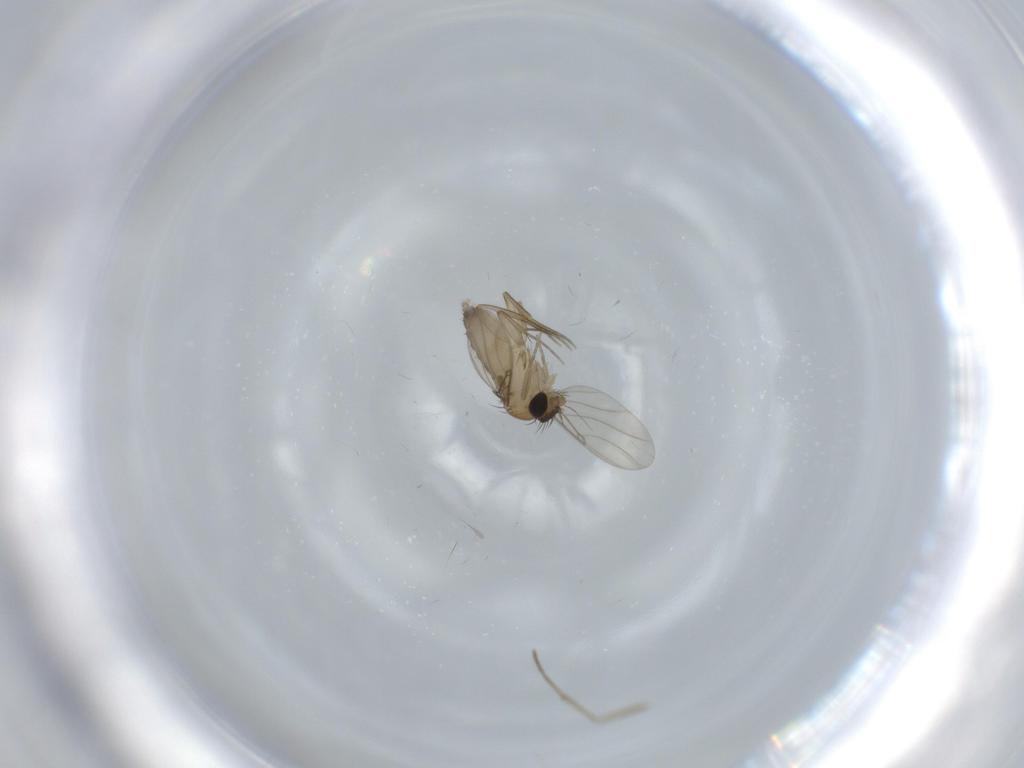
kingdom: Animalia
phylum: Arthropoda
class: Insecta
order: Diptera
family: Phoridae
